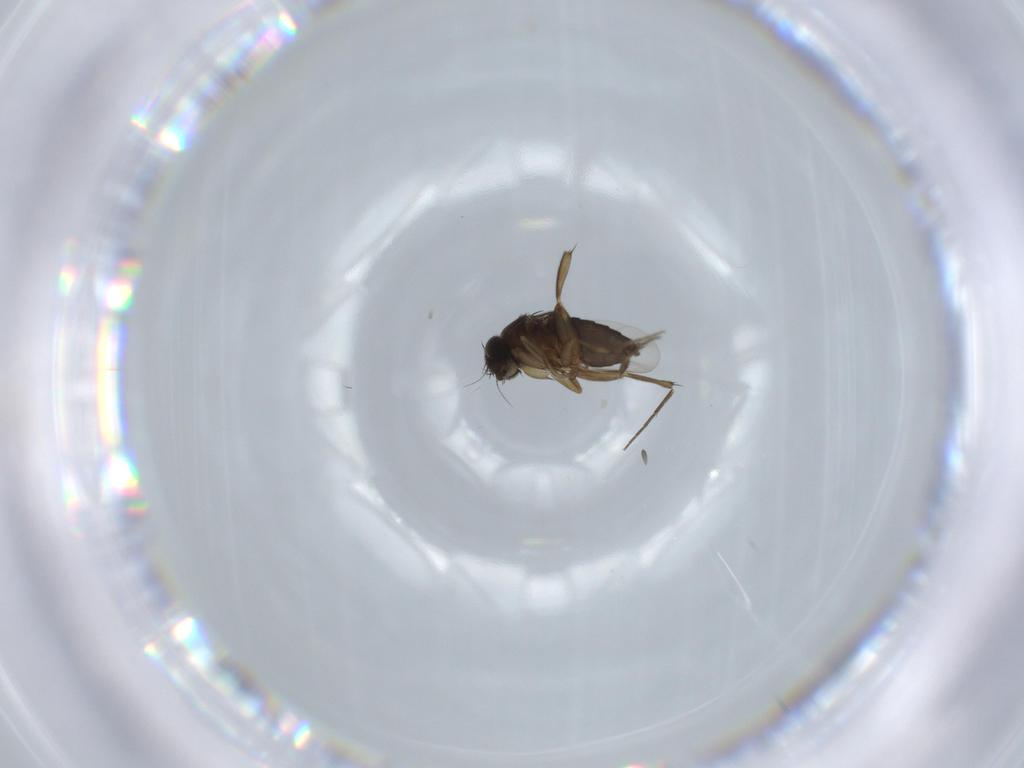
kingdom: Animalia
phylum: Arthropoda
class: Insecta
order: Diptera
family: Phoridae
